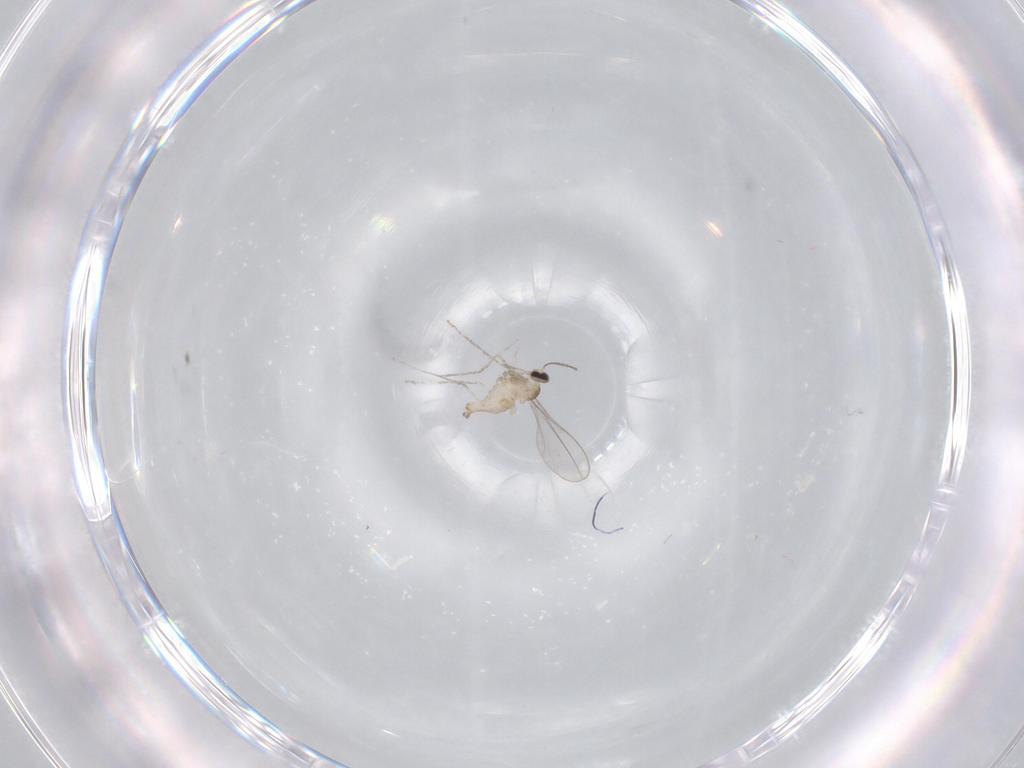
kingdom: Animalia
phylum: Arthropoda
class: Insecta
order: Diptera
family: Cecidomyiidae
